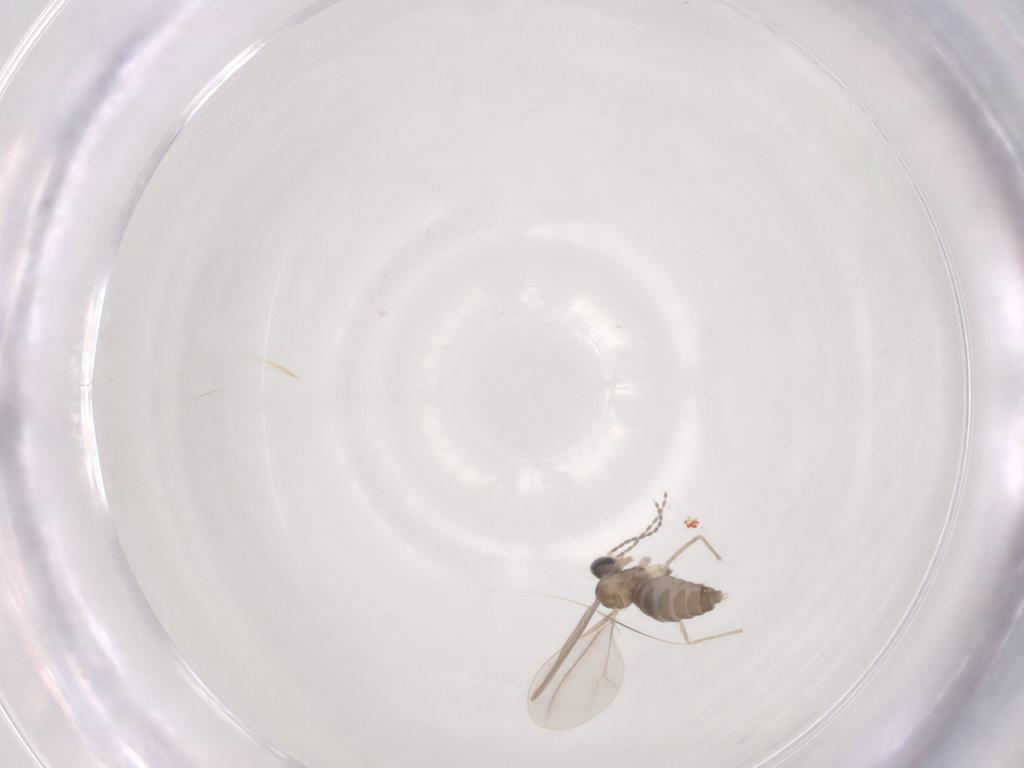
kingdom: Animalia
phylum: Arthropoda
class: Insecta
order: Diptera
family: Cecidomyiidae
